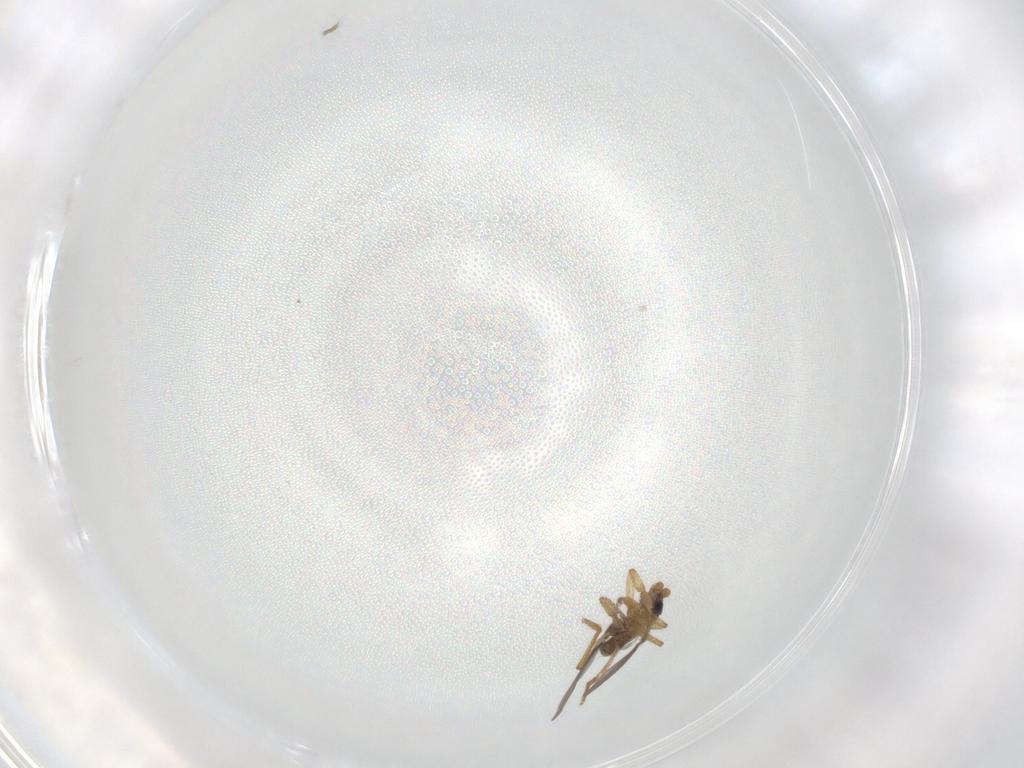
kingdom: Animalia
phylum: Arthropoda
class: Insecta
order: Diptera
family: Phoridae
